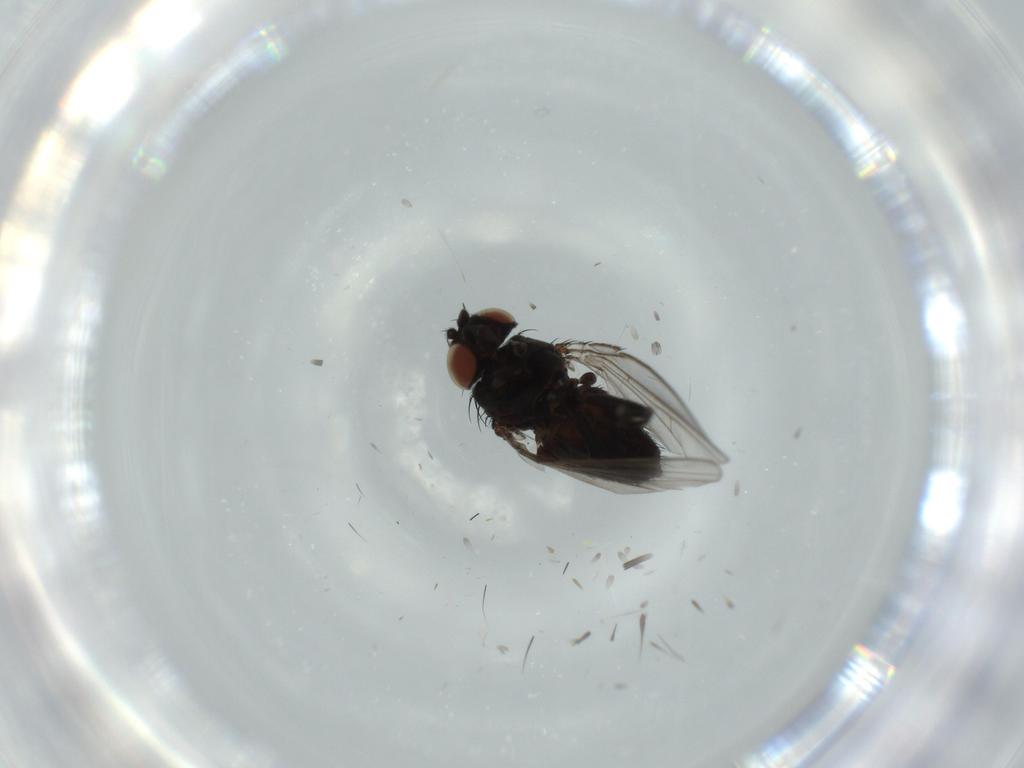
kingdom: Animalia
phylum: Arthropoda
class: Insecta
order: Diptera
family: Milichiidae
